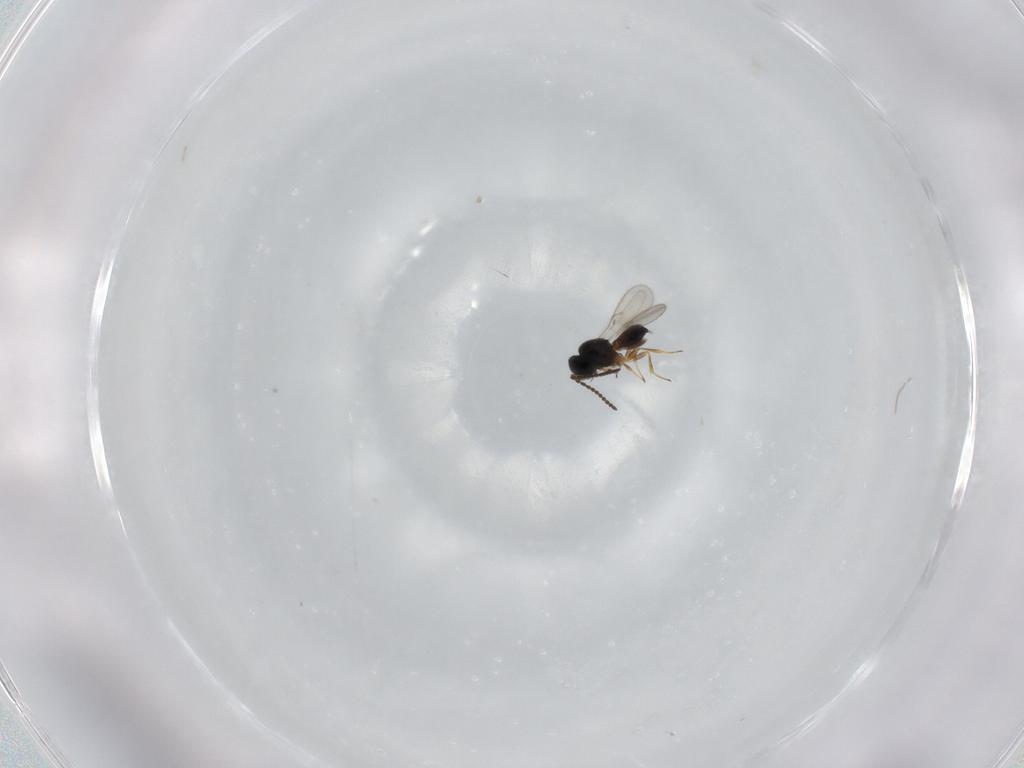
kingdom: Animalia
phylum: Arthropoda
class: Insecta
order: Hymenoptera
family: Scelionidae
